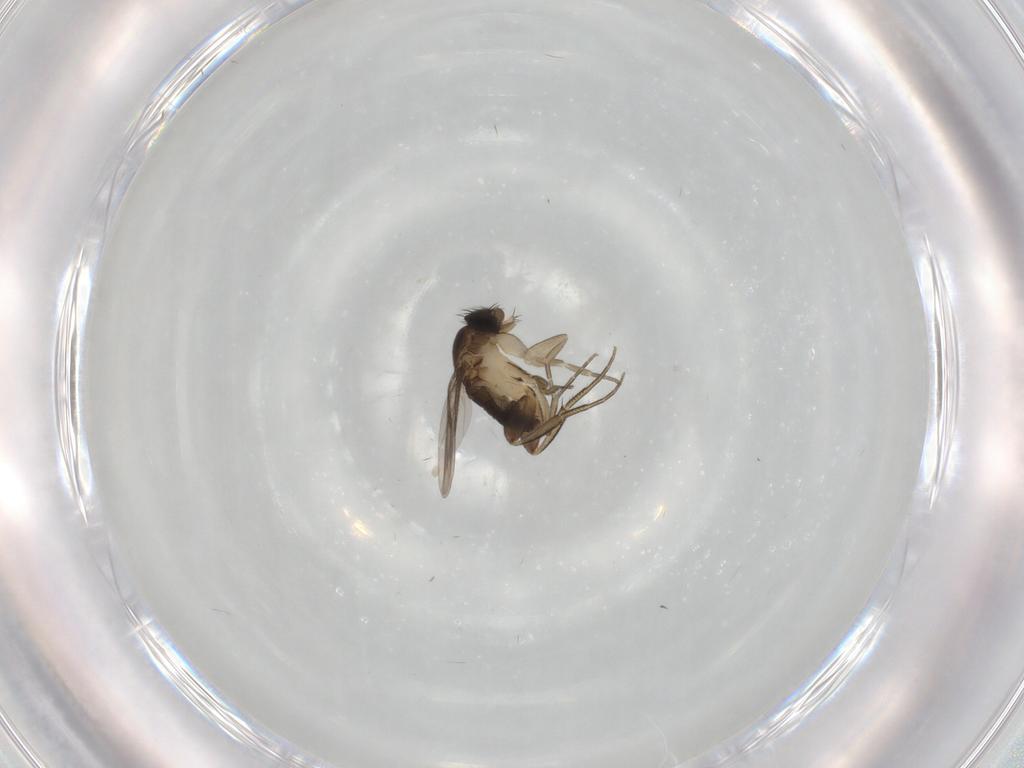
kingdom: Animalia
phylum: Arthropoda
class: Insecta
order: Diptera
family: Phoridae
